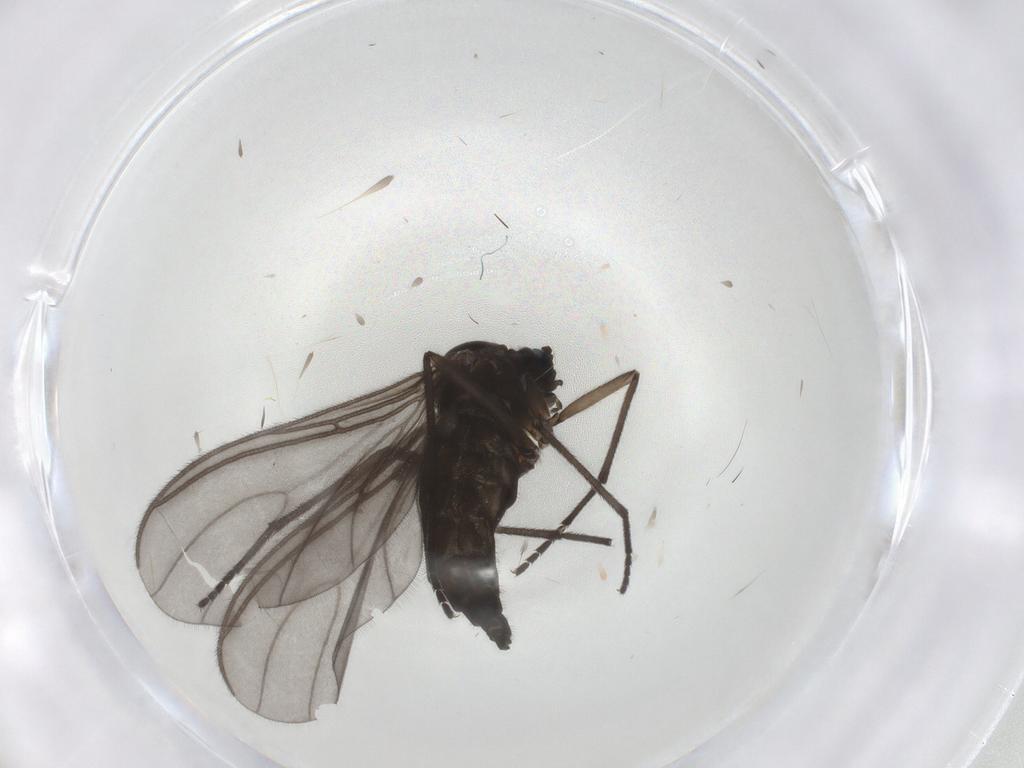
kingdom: Animalia
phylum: Arthropoda
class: Insecta
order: Diptera
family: Sciaridae
